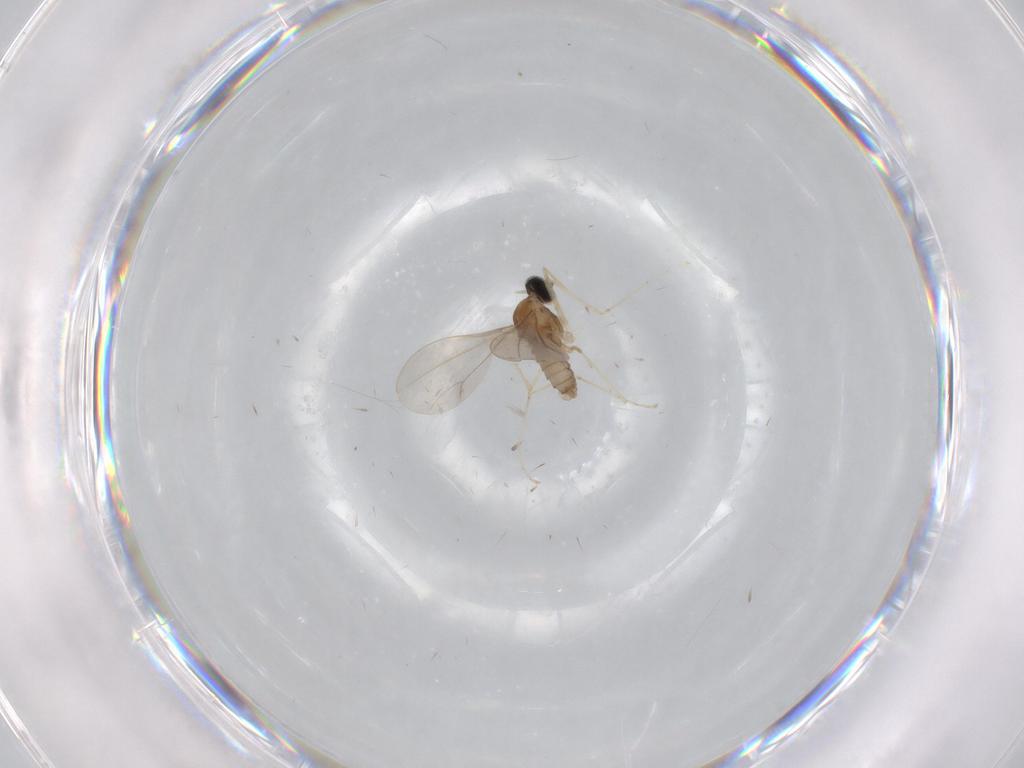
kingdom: Animalia
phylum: Arthropoda
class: Insecta
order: Diptera
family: Cecidomyiidae
